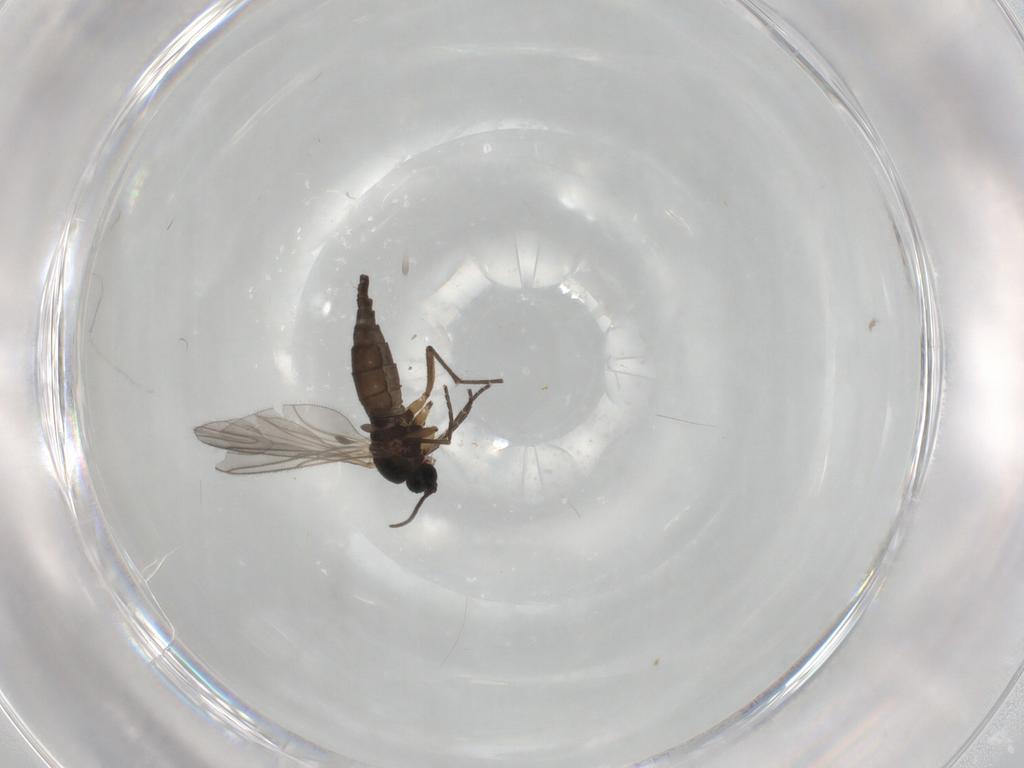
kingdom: Animalia
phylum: Arthropoda
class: Insecta
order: Diptera
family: Sciaridae
